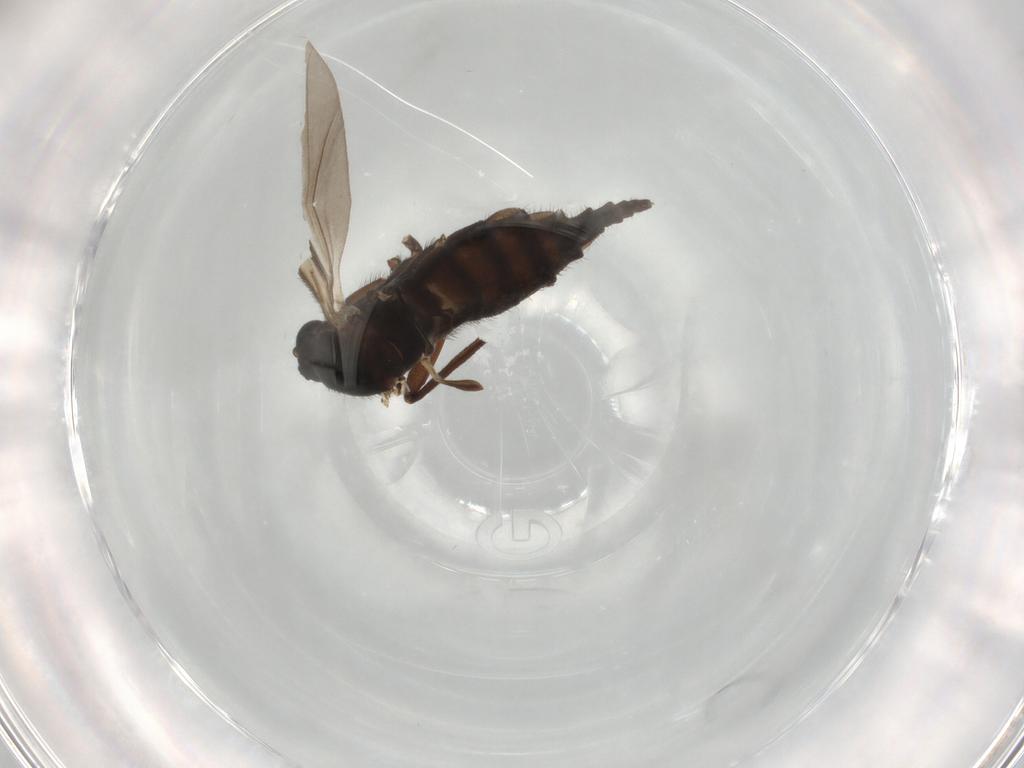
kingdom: Animalia
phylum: Arthropoda
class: Insecta
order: Diptera
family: Sciaridae
